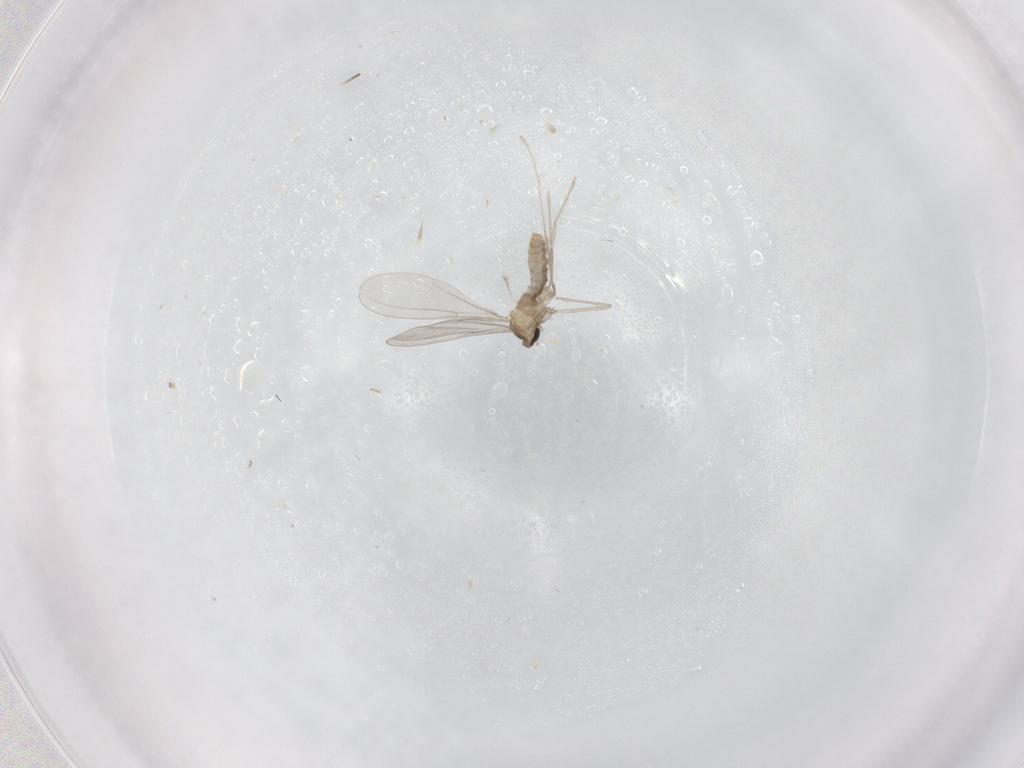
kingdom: Animalia
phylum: Arthropoda
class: Insecta
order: Diptera
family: Cecidomyiidae
